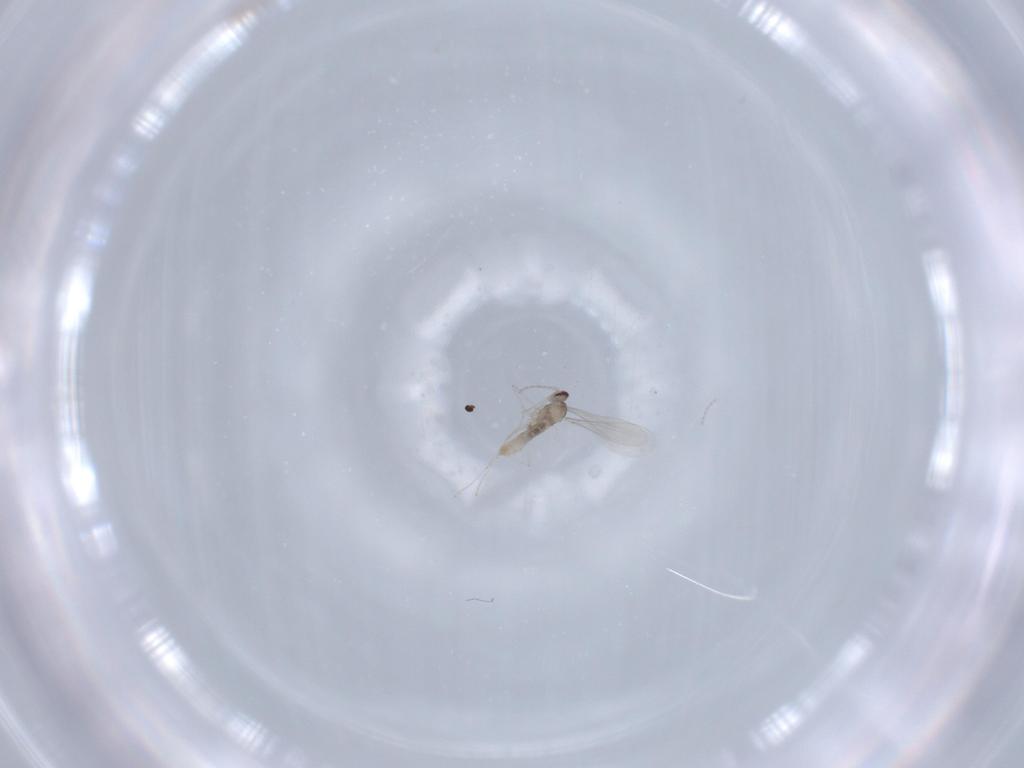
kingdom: Animalia
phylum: Arthropoda
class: Insecta
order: Diptera
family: Cecidomyiidae
